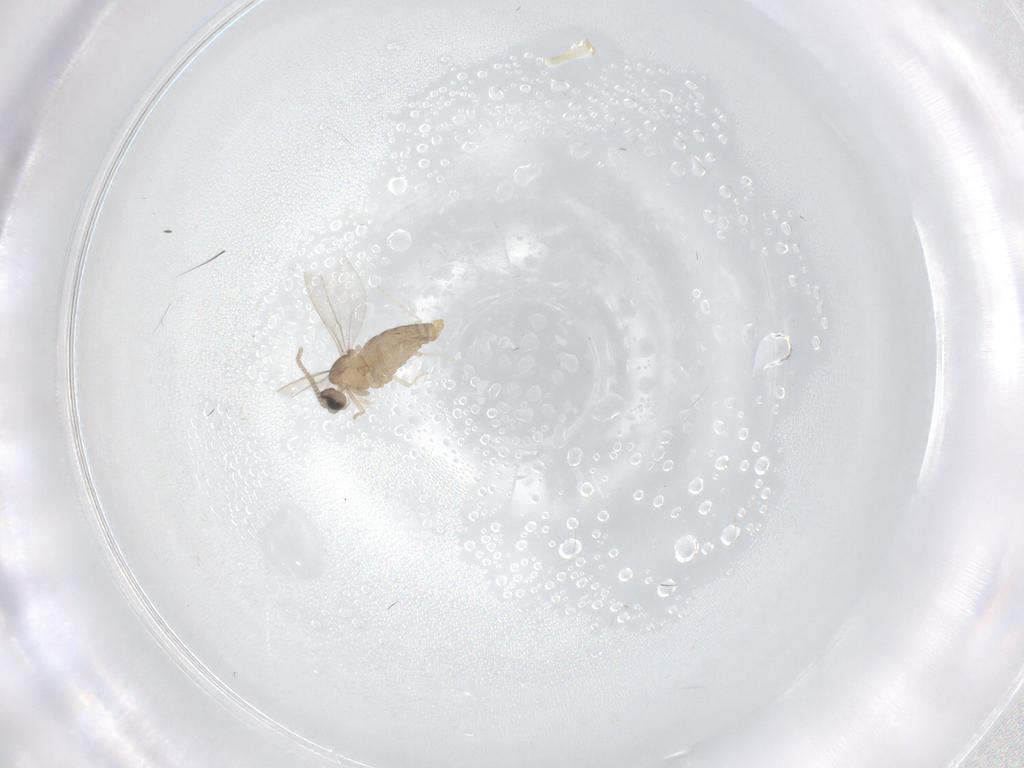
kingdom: Animalia
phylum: Arthropoda
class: Insecta
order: Diptera
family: Cecidomyiidae
